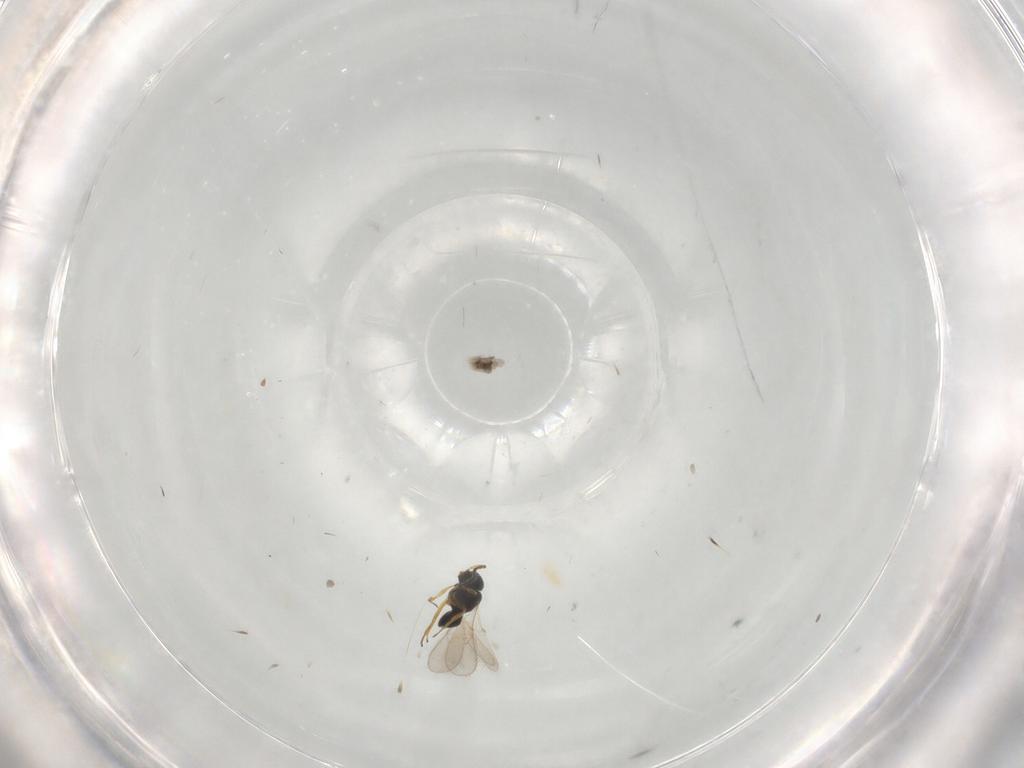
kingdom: Animalia
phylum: Arthropoda
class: Insecta
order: Hymenoptera
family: Scelionidae
